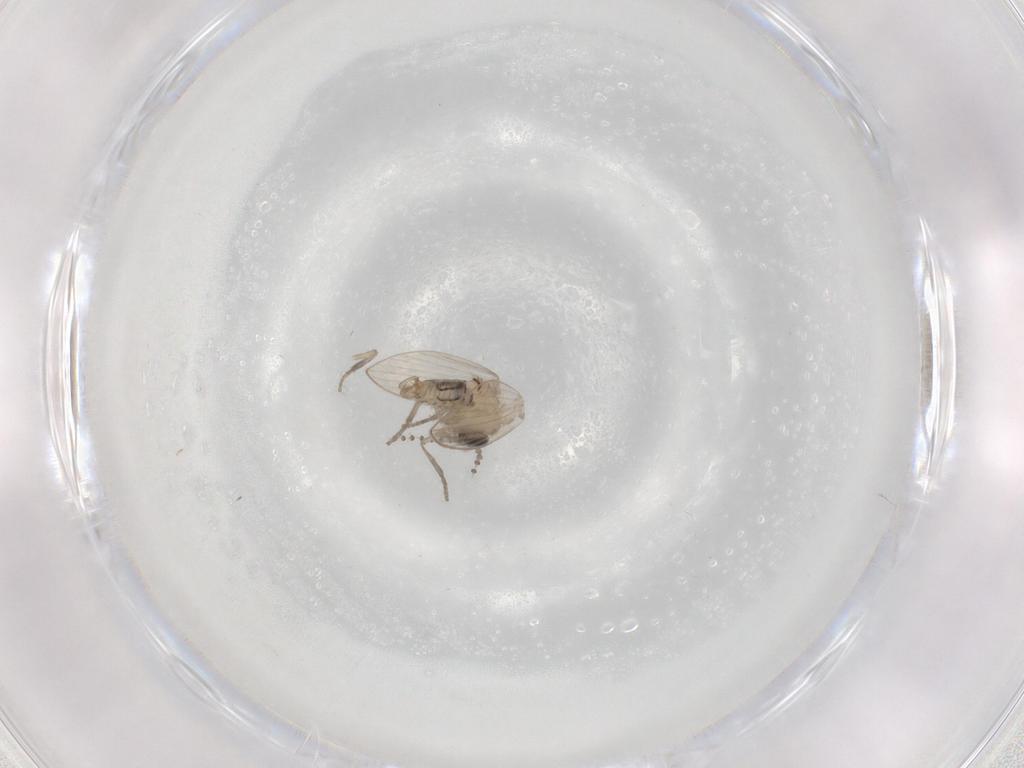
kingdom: Animalia
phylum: Arthropoda
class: Insecta
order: Diptera
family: Psychodidae
